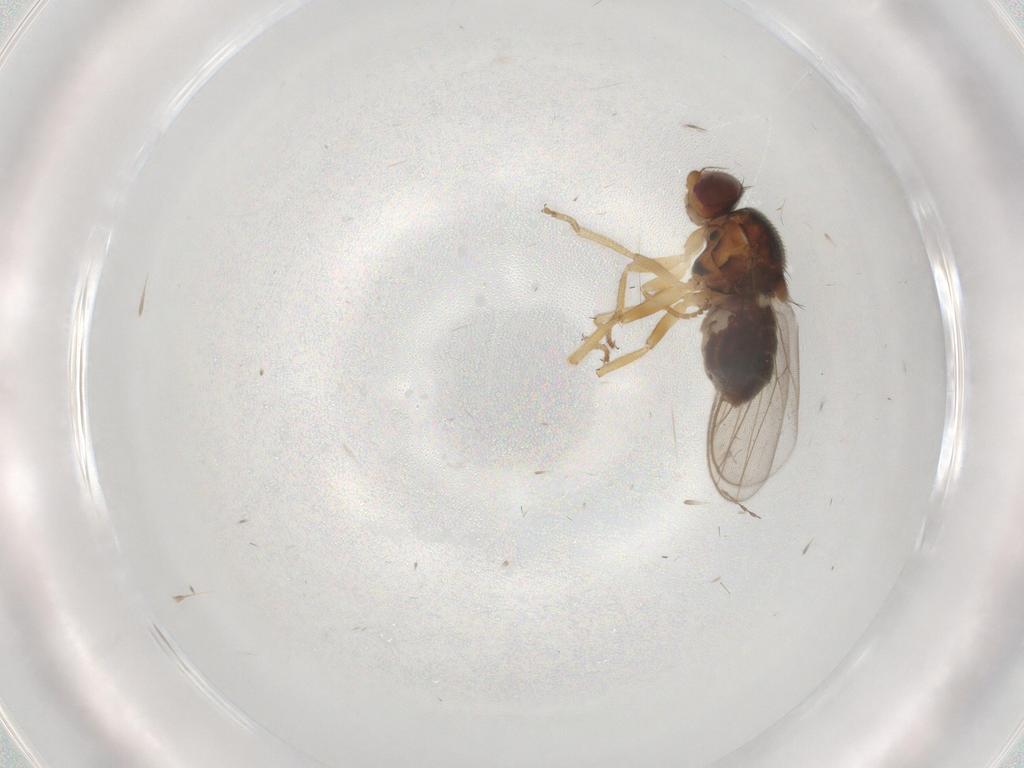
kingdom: Animalia
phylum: Arthropoda
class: Insecta
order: Diptera
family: Chloropidae
